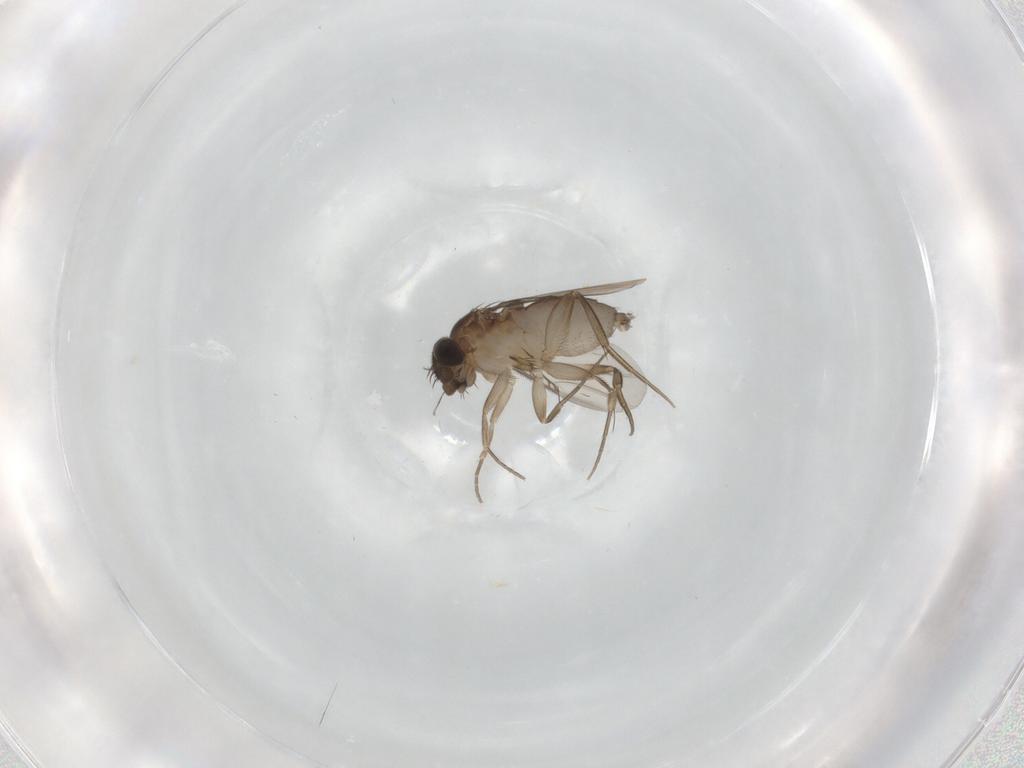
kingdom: Animalia
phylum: Arthropoda
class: Insecta
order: Diptera
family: Phoridae
